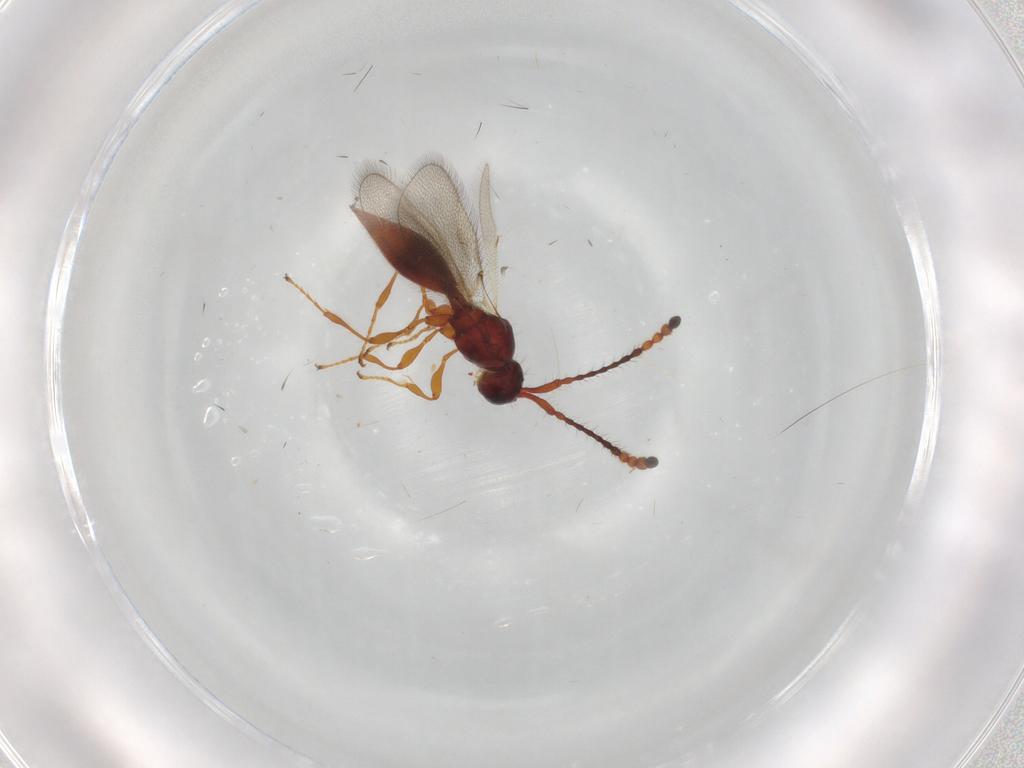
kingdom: Animalia
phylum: Arthropoda
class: Insecta
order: Hymenoptera
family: Diapriidae
